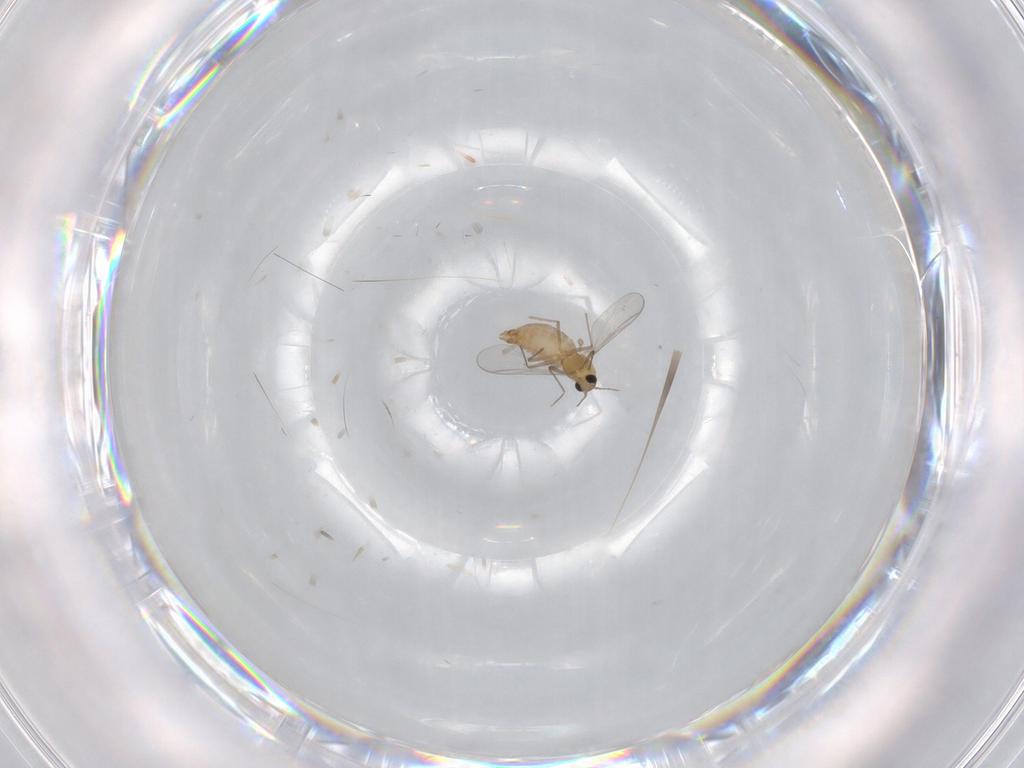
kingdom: Animalia
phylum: Arthropoda
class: Insecta
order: Diptera
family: Chironomidae
